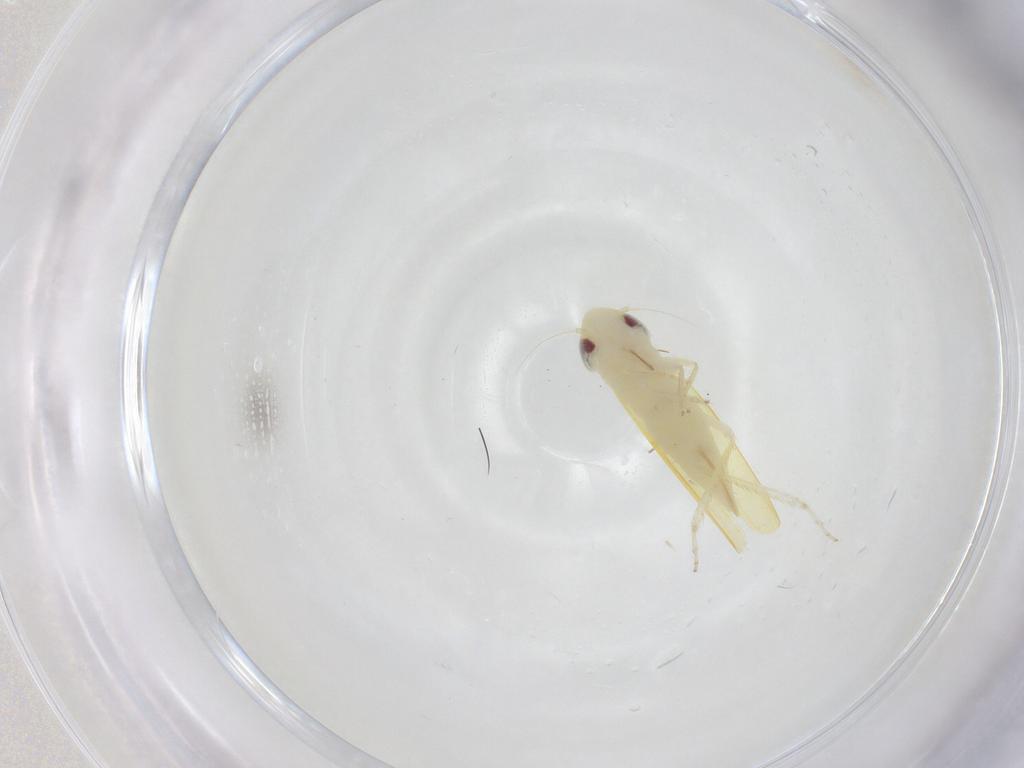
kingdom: Animalia
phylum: Arthropoda
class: Insecta
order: Hemiptera
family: Cicadellidae
